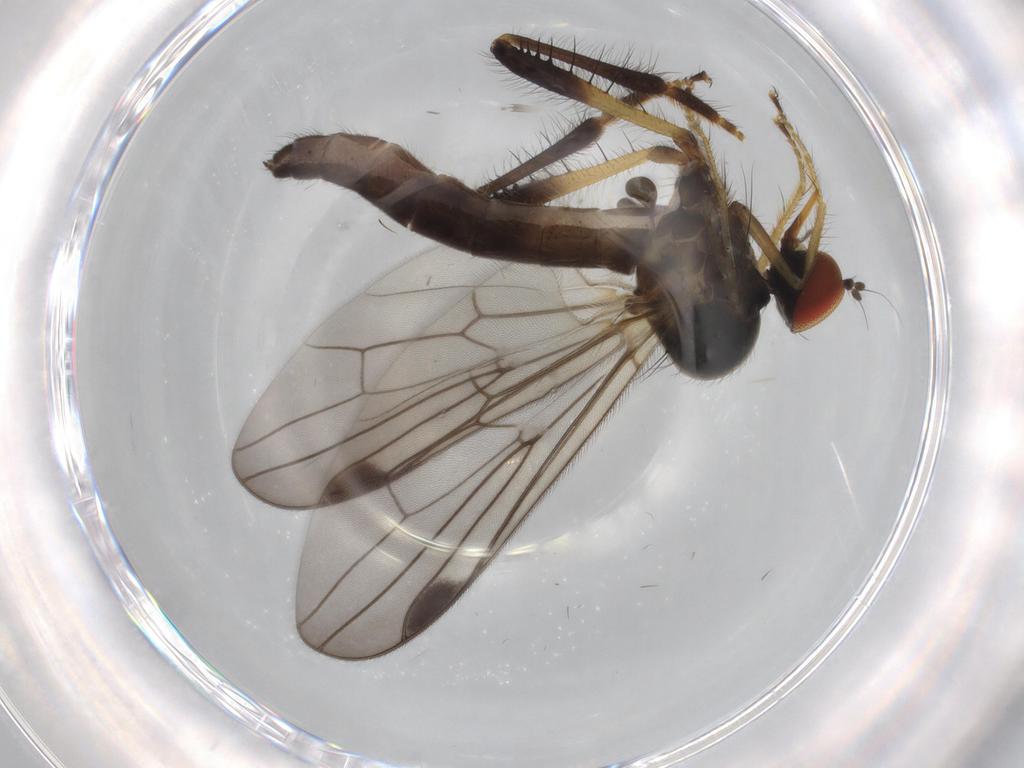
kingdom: Animalia
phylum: Arthropoda
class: Insecta
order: Diptera
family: Hybotidae
